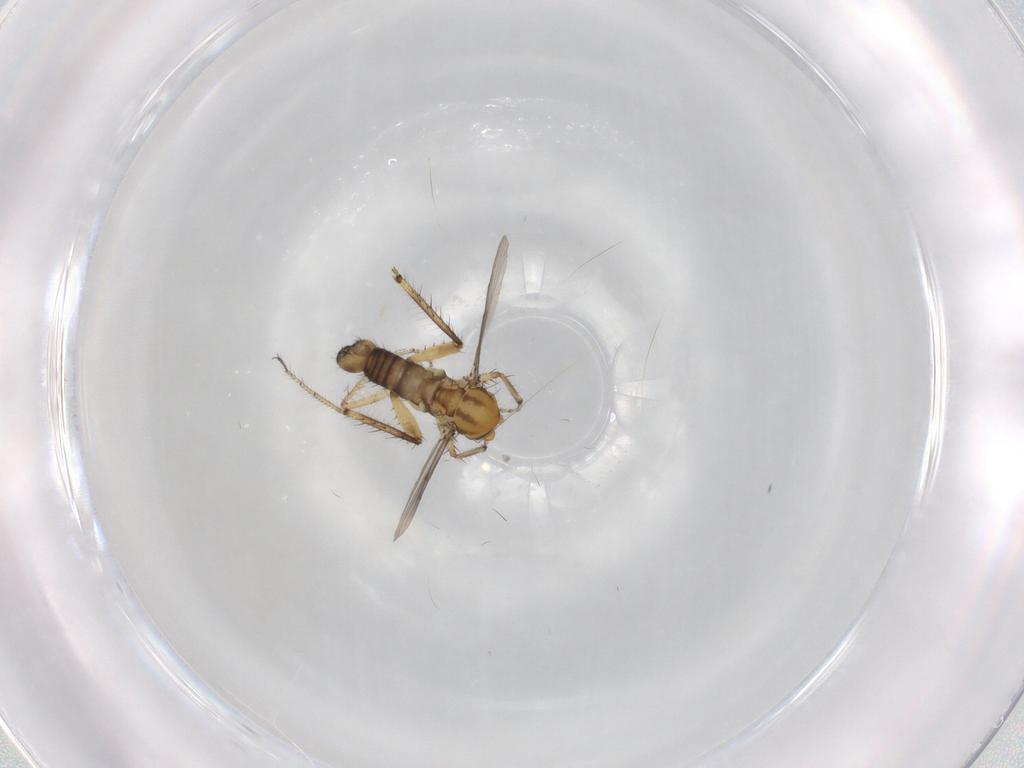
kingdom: Animalia
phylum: Arthropoda
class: Insecta
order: Diptera
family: Ceratopogonidae
